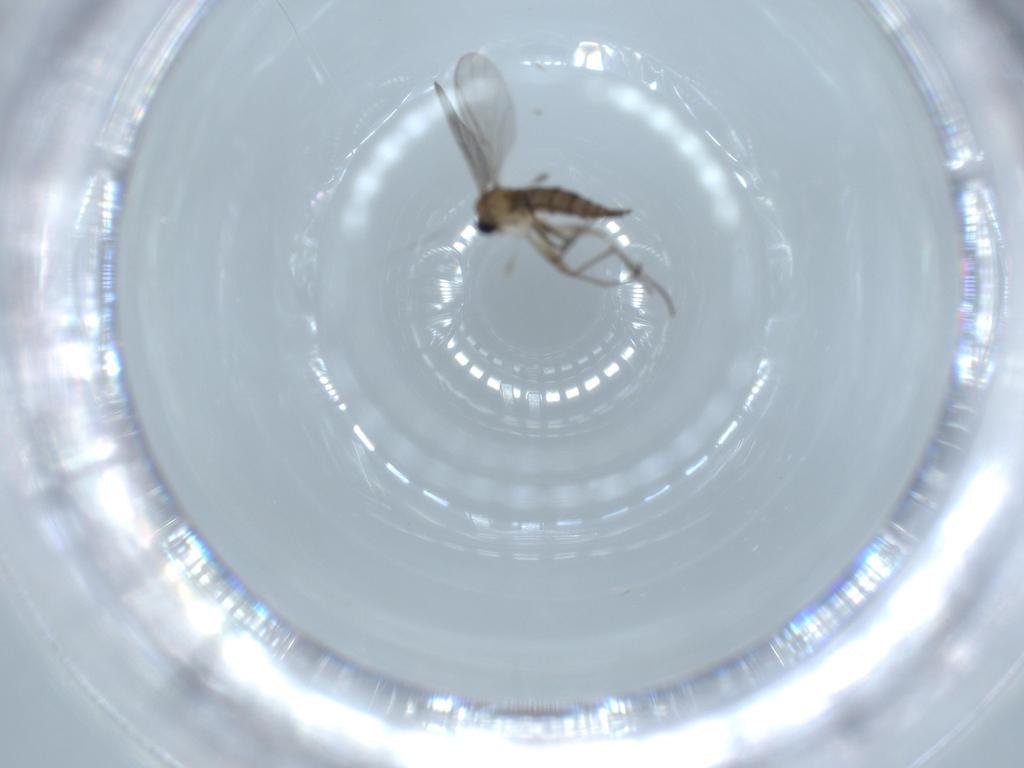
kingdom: Animalia
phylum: Arthropoda
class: Insecta
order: Diptera
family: Sciaridae
